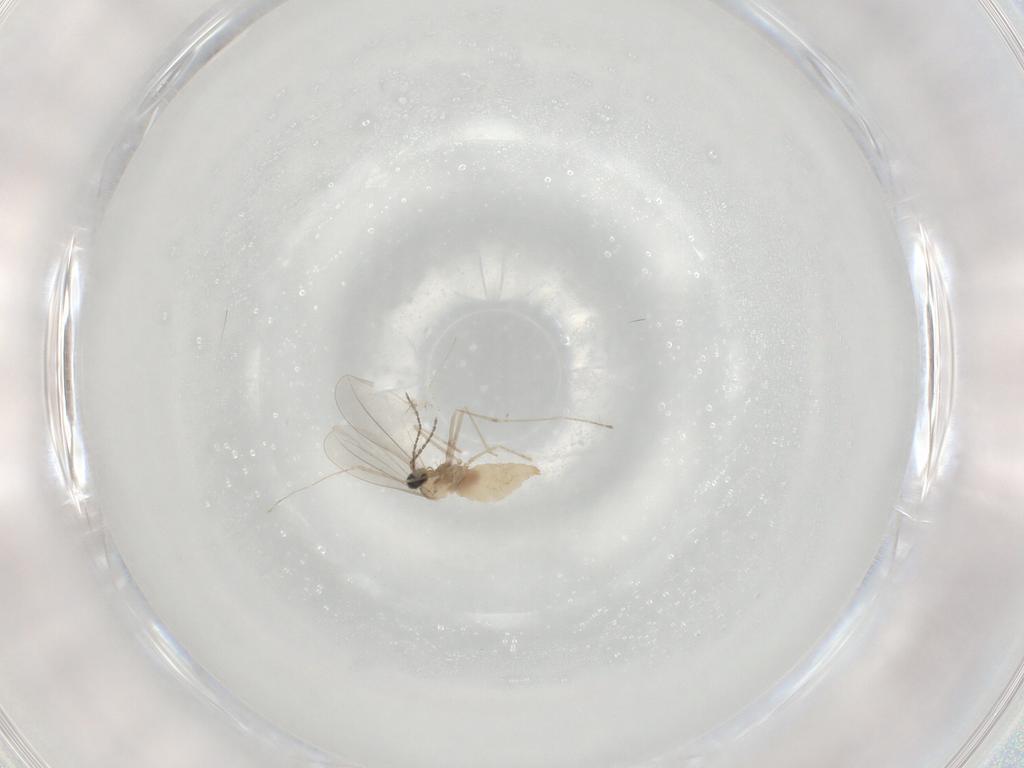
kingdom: Animalia
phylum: Arthropoda
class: Insecta
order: Diptera
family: Cecidomyiidae
